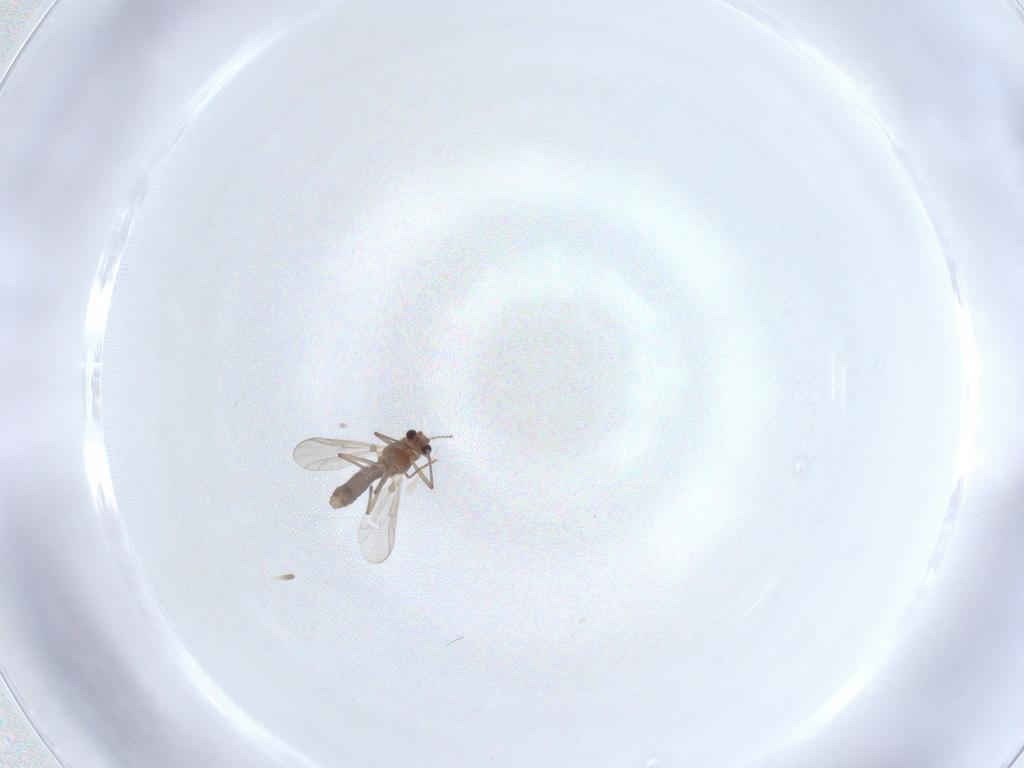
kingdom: Animalia
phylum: Arthropoda
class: Insecta
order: Diptera
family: Chironomidae
